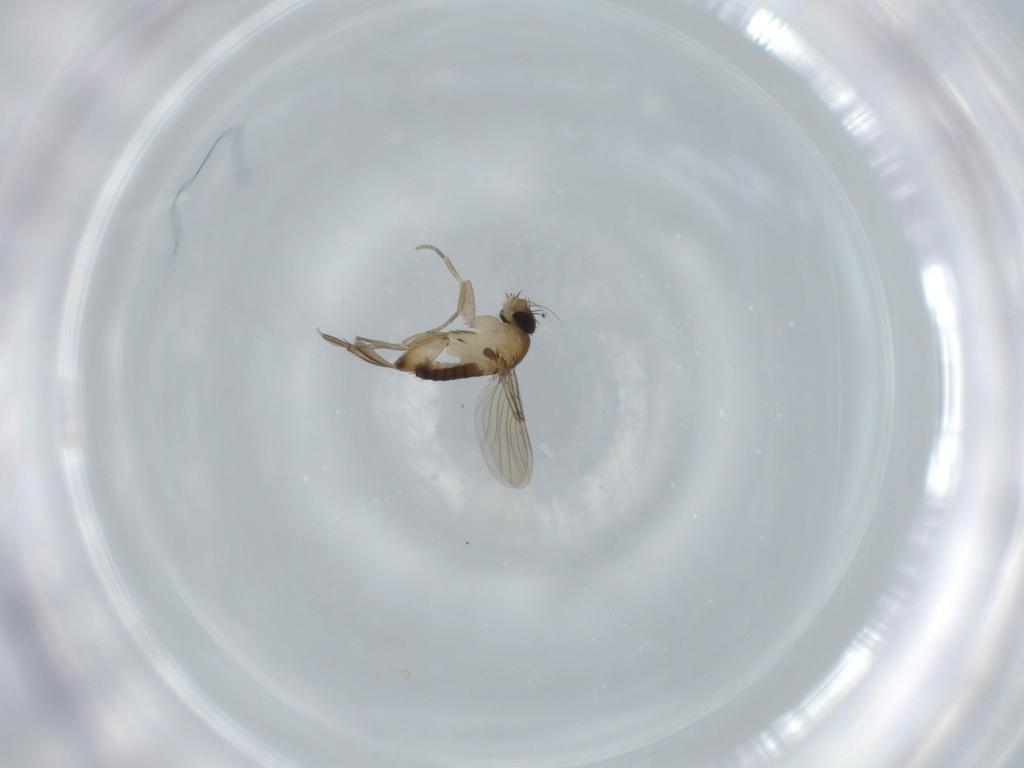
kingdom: Animalia
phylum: Arthropoda
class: Insecta
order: Diptera
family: Phoridae
